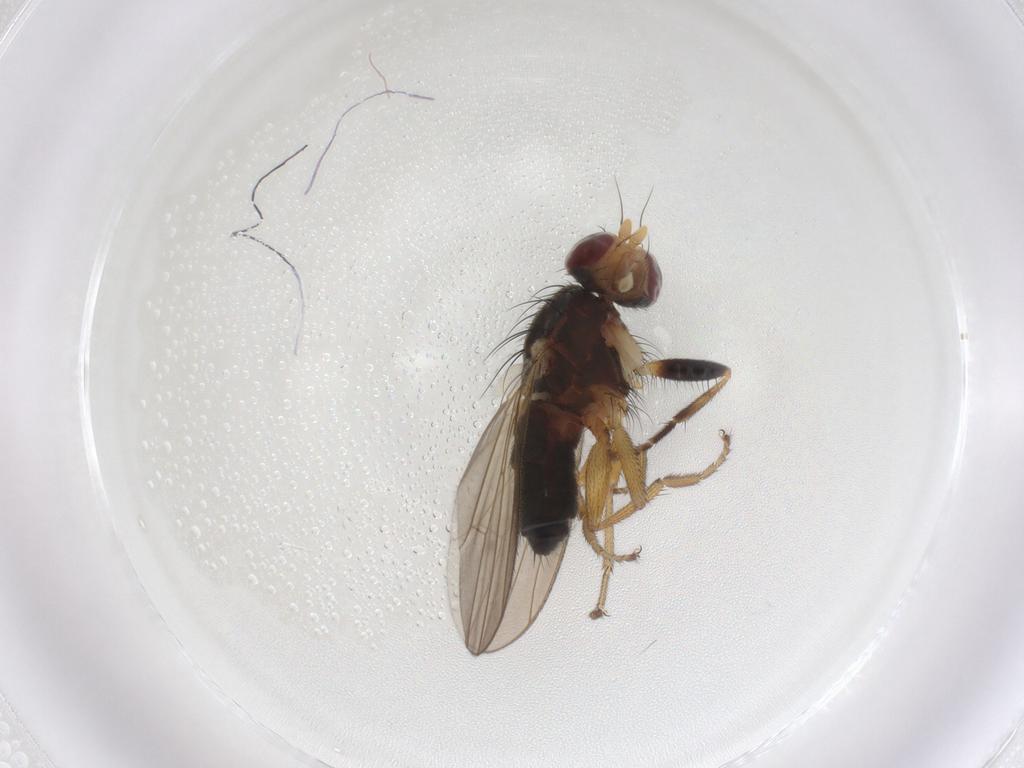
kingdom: Animalia
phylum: Arthropoda
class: Insecta
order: Diptera
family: Heleomyzidae
